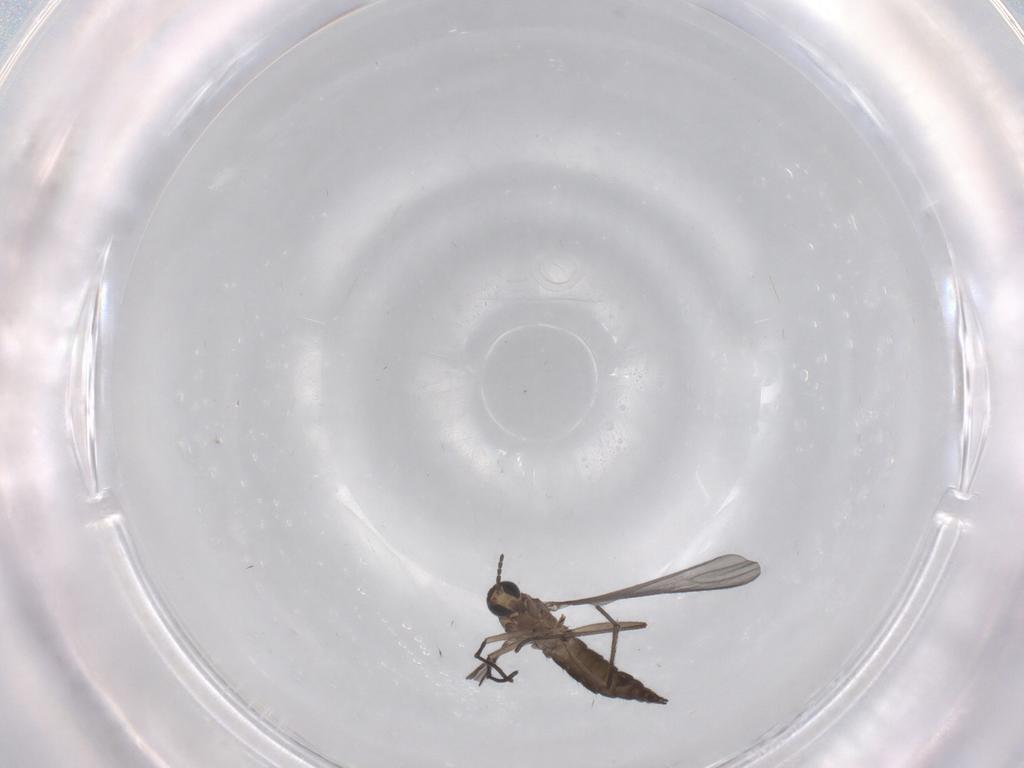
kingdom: Animalia
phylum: Arthropoda
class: Insecta
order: Diptera
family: Sciaridae
